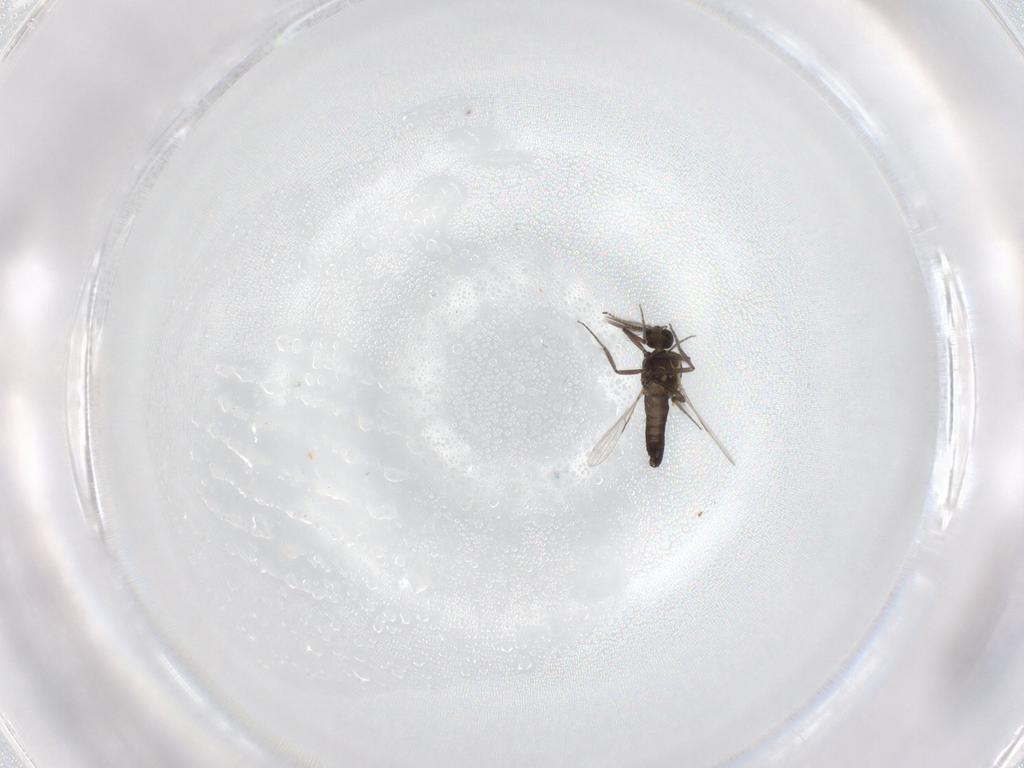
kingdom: Animalia
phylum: Arthropoda
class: Insecta
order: Diptera
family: Ceratopogonidae
